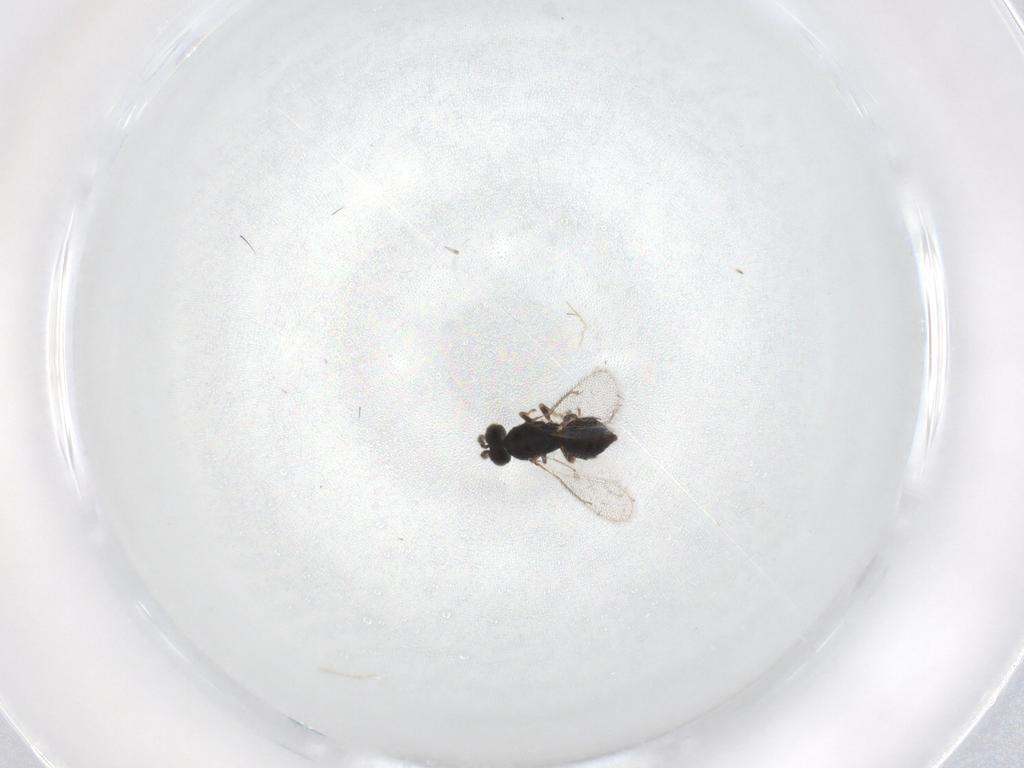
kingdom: Animalia
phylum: Arthropoda
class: Insecta
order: Hymenoptera
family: Eulophidae
